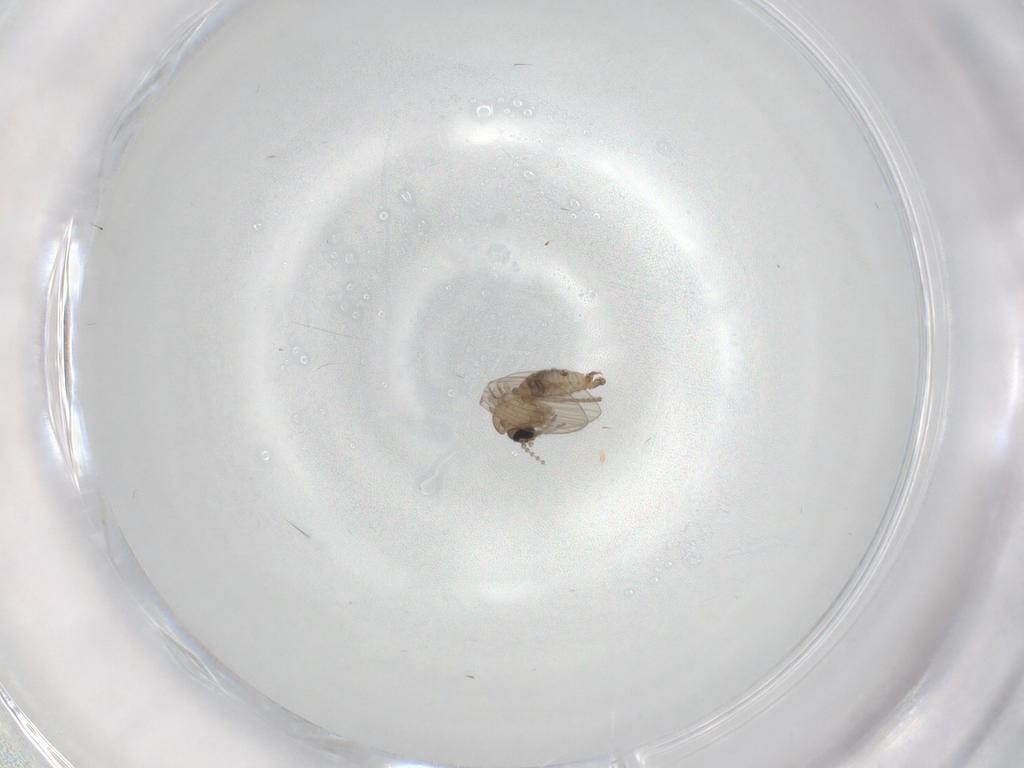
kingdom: Animalia
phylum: Arthropoda
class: Insecta
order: Diptera
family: Psychodidae
